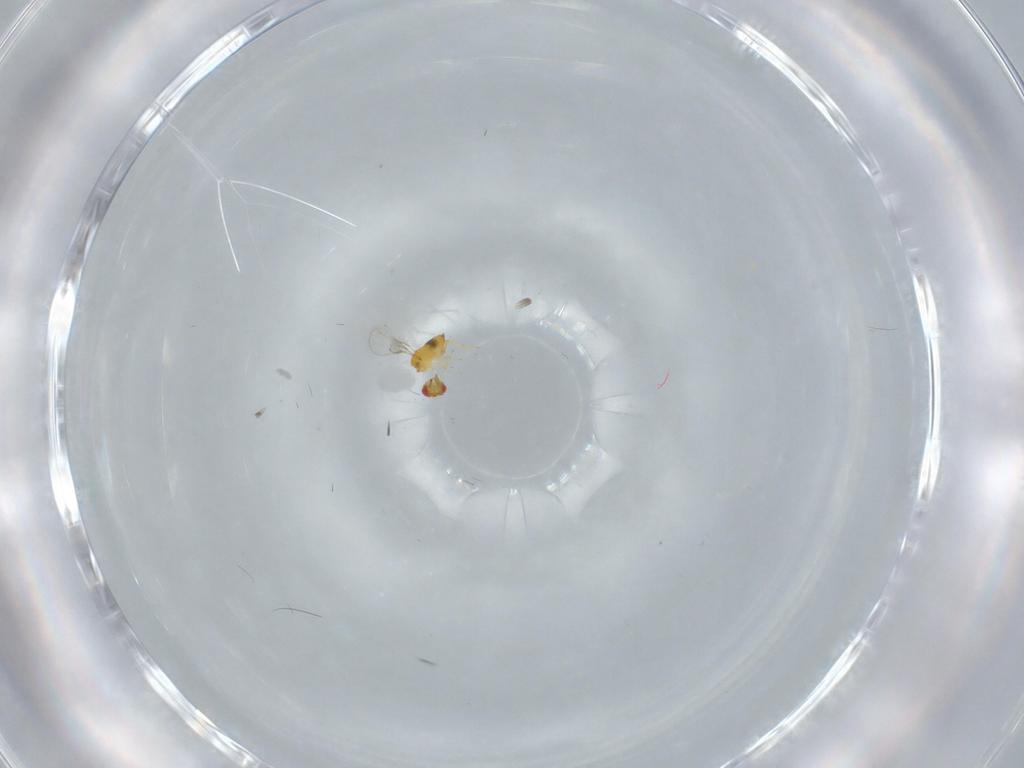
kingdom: Animalia
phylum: Arthropoda
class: Insecta
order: Hymenoptera
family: Trichogrammatidae
